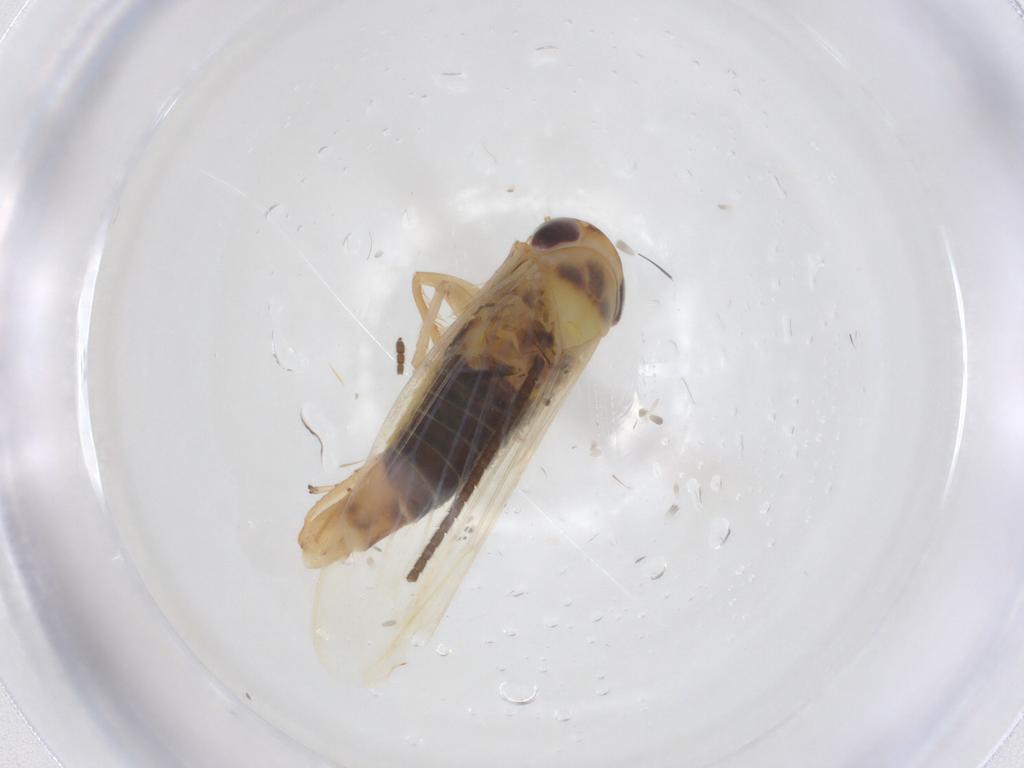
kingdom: Animalia
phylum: Arthropoda
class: Insecta
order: Hemiptera
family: Cicadellidae
